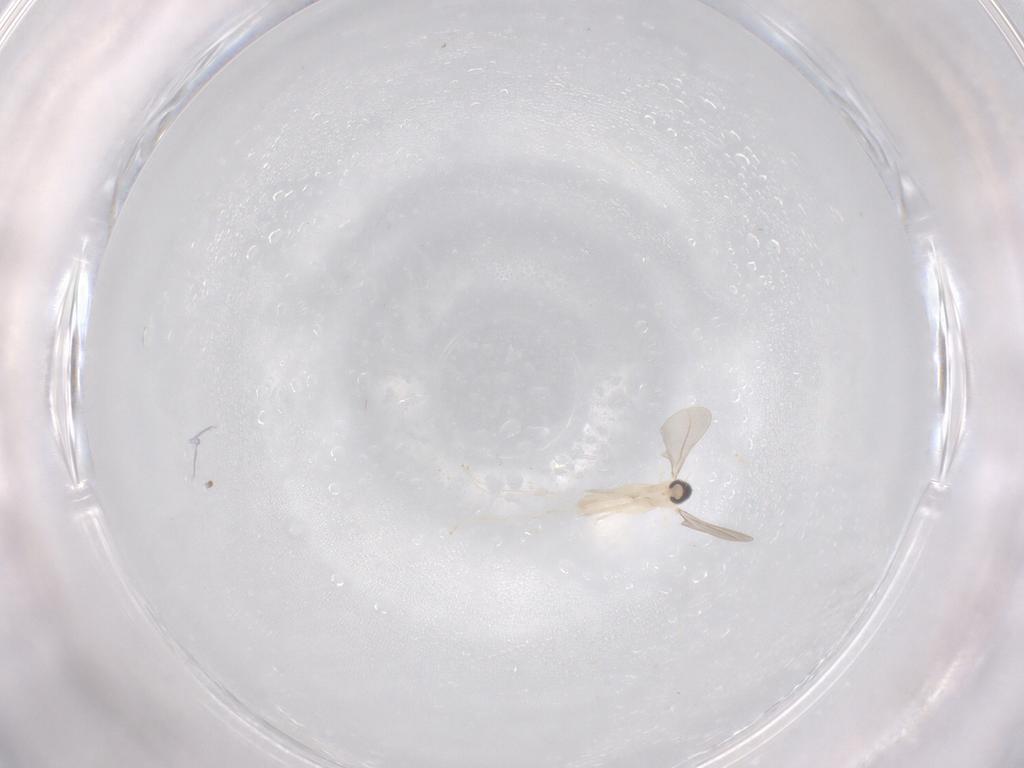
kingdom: Animalia
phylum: Arthropoda
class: Insecta
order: Diptera
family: Cecidomyiidae
